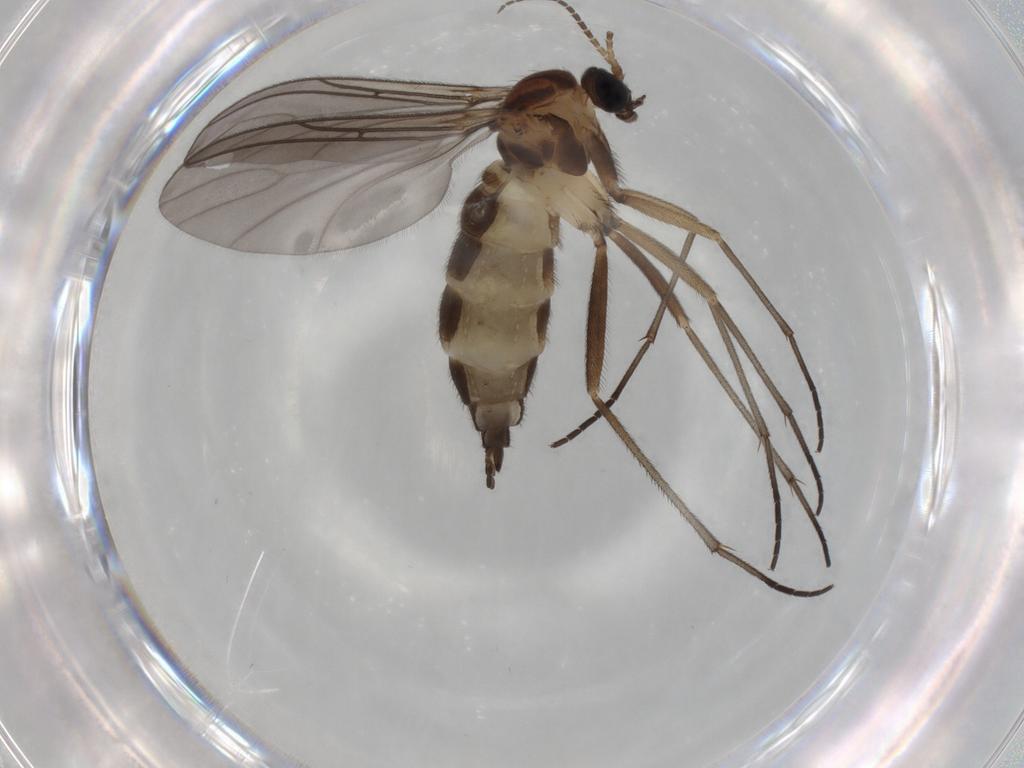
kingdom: Animalia
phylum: Arthropoda
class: Insecta
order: Diptera
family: Sciaridae
